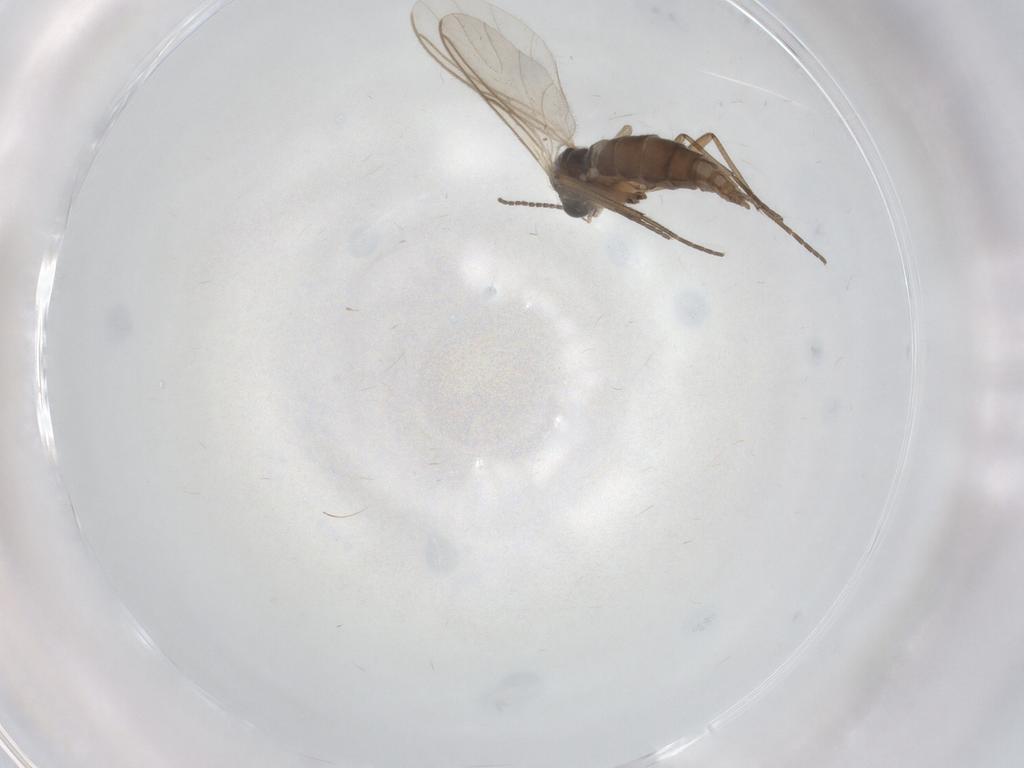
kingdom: Animalia
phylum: Arthropoda
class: Insecta
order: Diptera
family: Sciaridae
